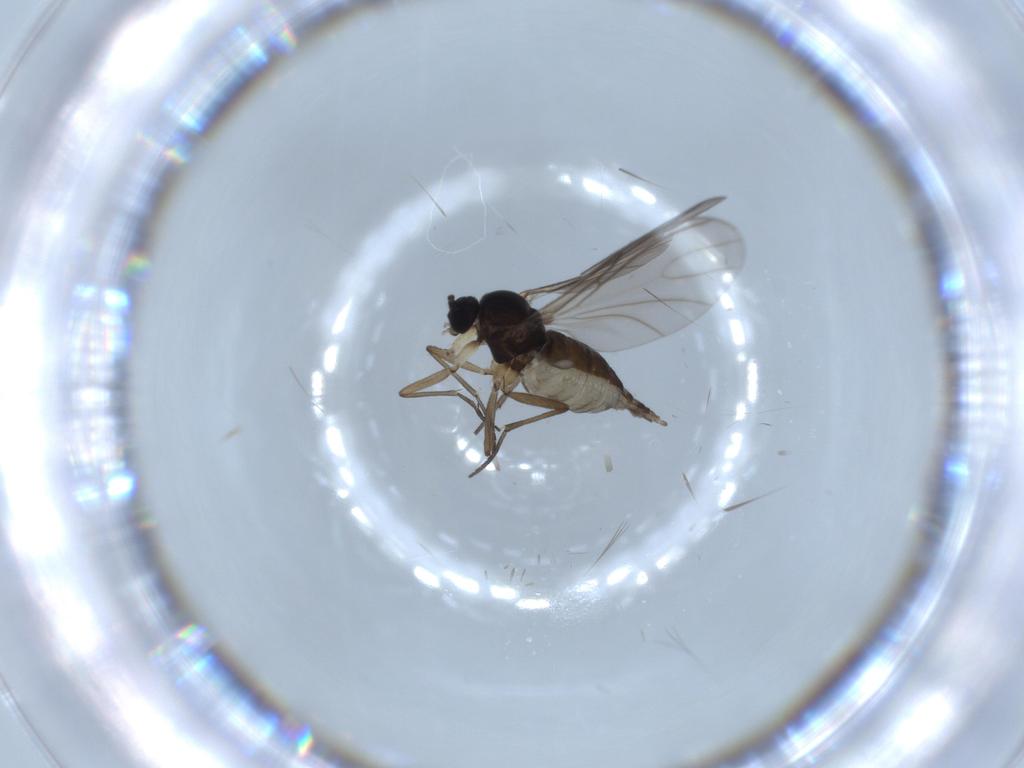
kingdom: Animalia
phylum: Arthropoda
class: Insecta
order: Diptera
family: Sciaridae
